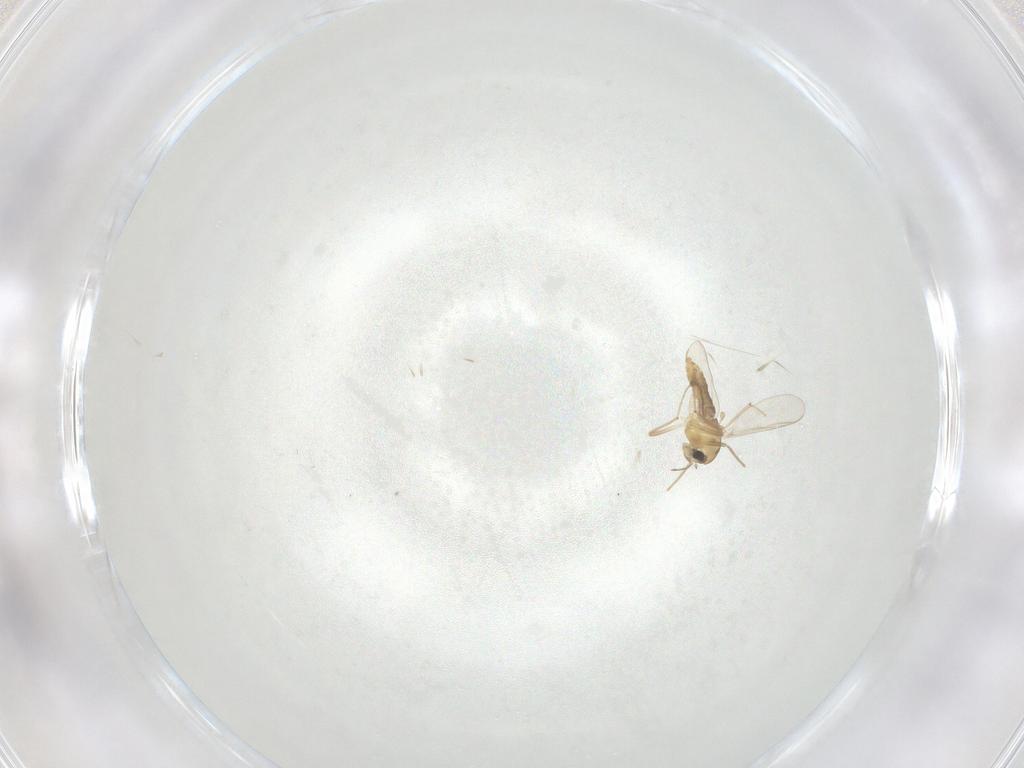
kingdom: Animalia
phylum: Arthropoda
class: Insecta
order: Diptera
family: Chironomidae
